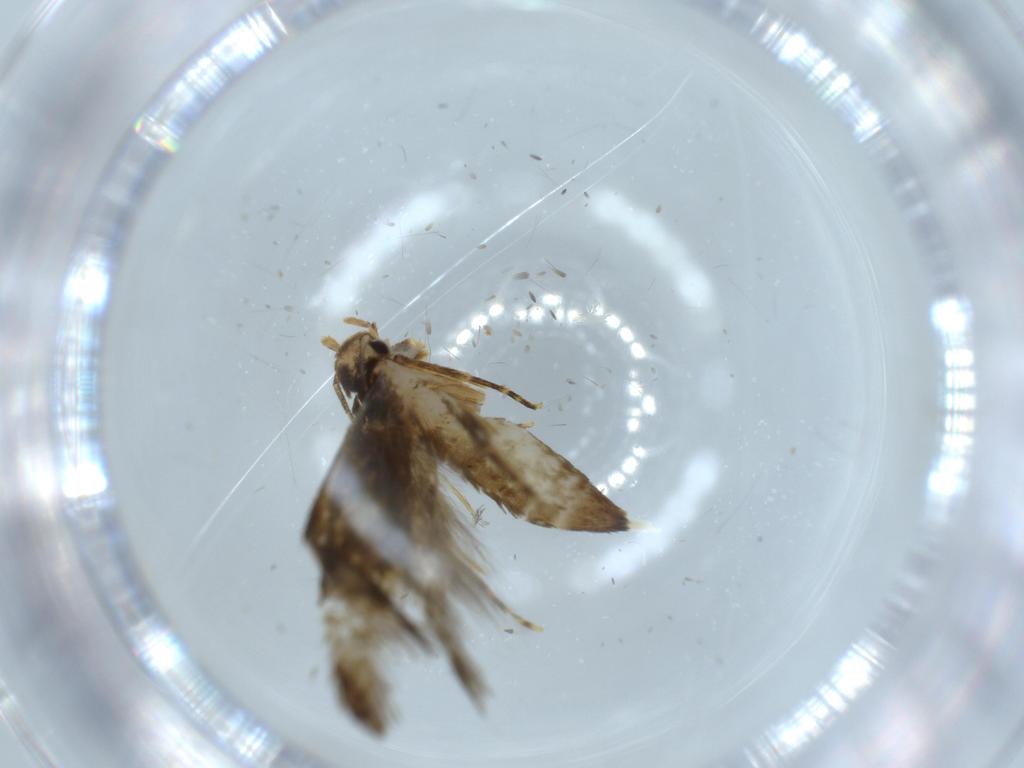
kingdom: Animalia
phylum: Arthropoda
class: Insecta
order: Lepidoptera
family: Tineidae
